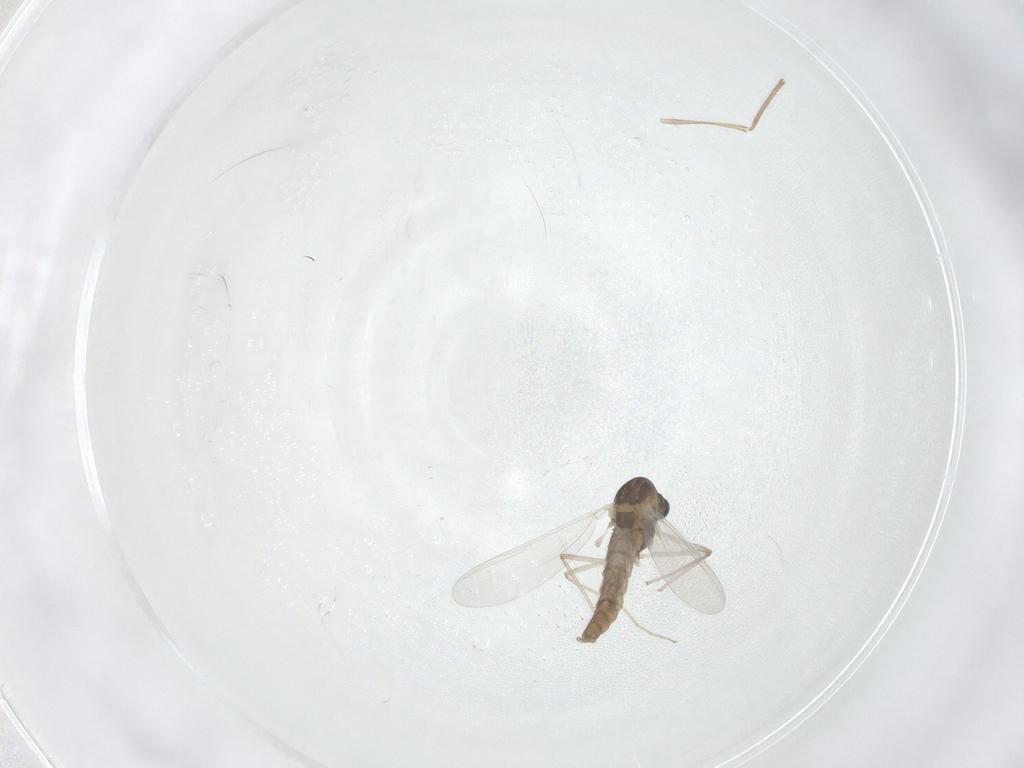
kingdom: Animalia
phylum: Arthropoda
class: Insecta
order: Diptera
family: Chironomidae
